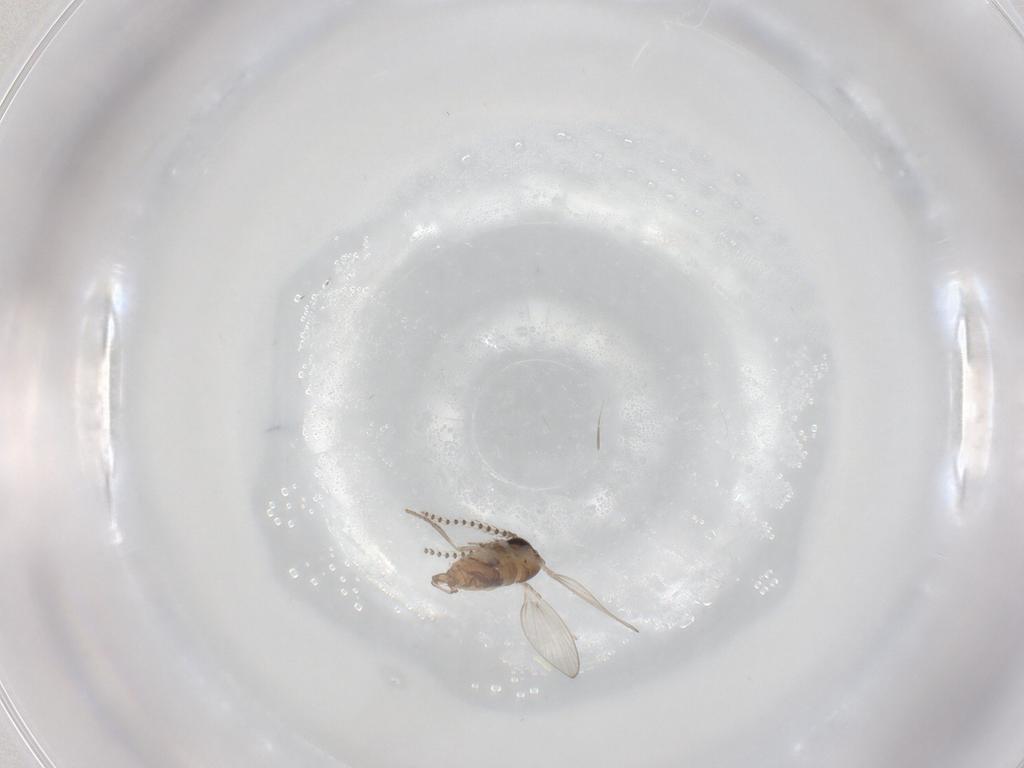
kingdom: Animalia
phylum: Arthropoda
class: Insecta
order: Diptera
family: Psychodidae
